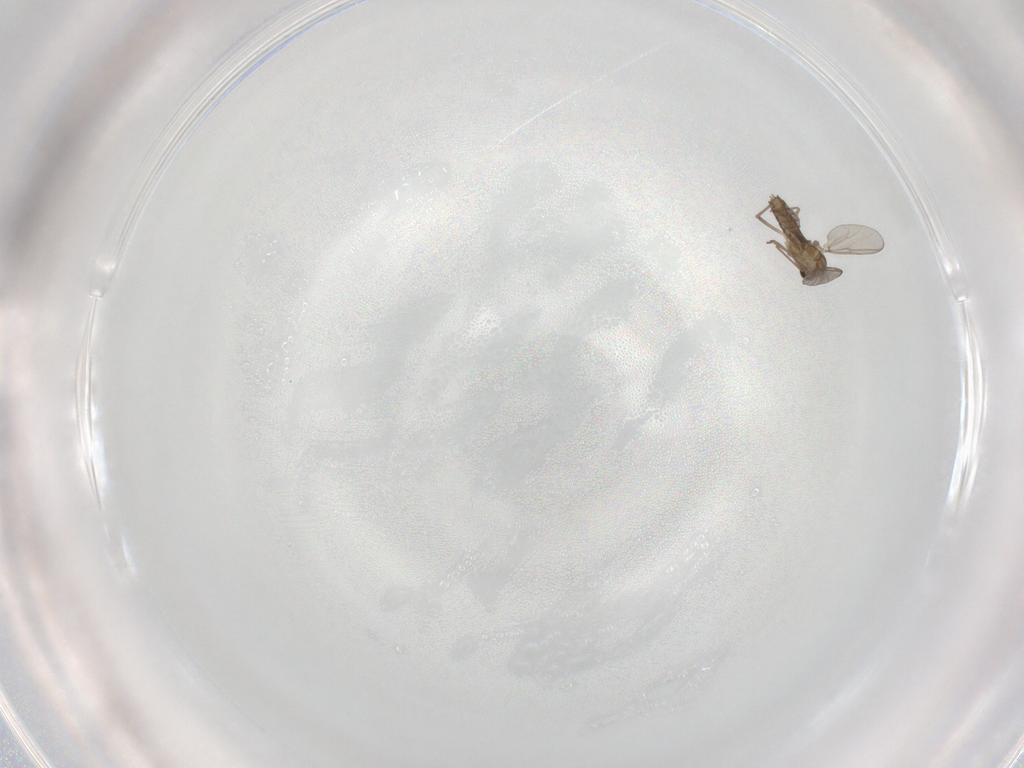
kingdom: Animalia
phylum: Arthropoda
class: Insecta
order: Diptera
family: Chironomidae
